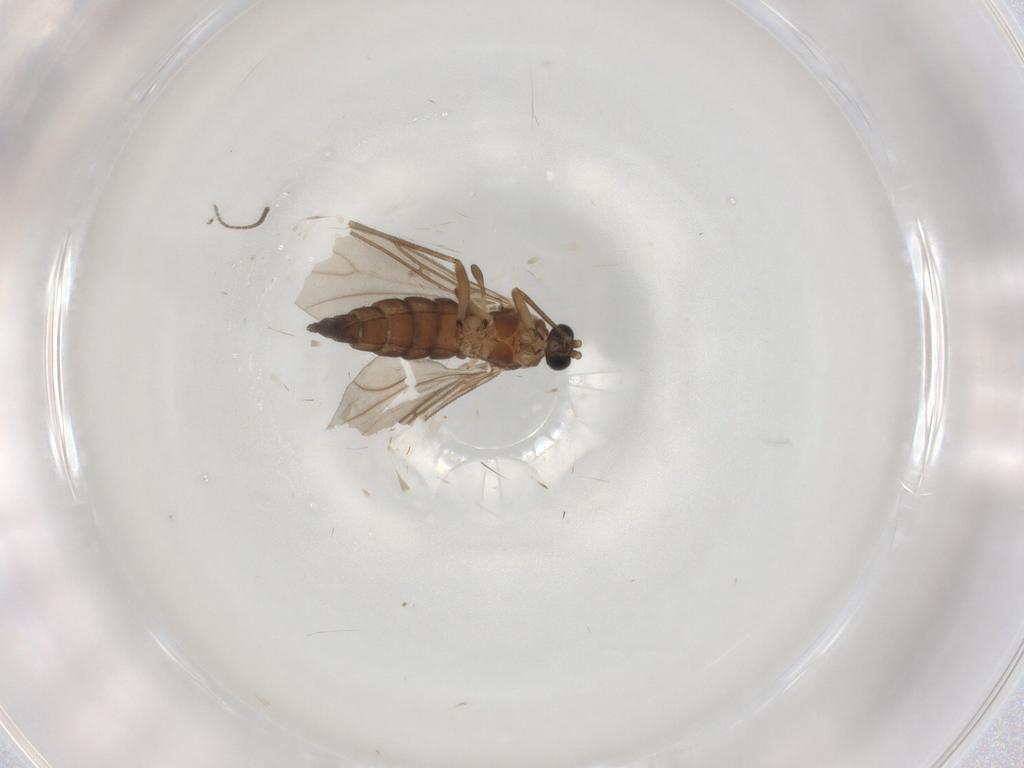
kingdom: Animalia
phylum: Arthropoda
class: Insecta
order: Diptera
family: Sciaridae
